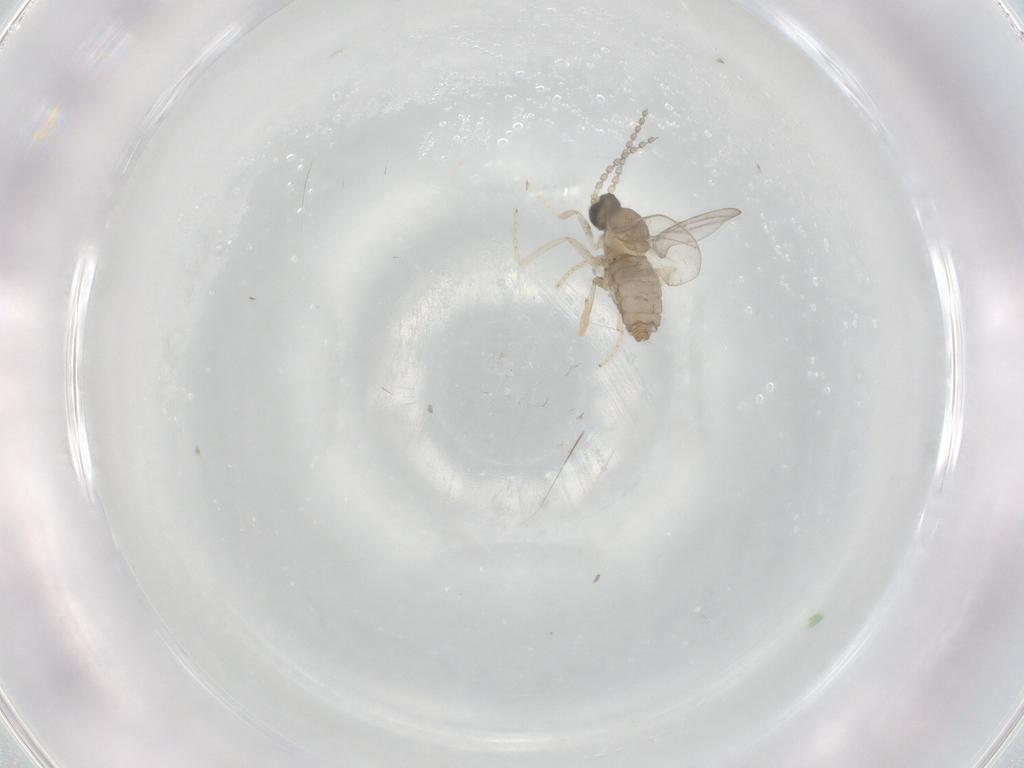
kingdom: Animalia
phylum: Arthropoda
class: Insecta
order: Diptera
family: Cecidomyiidae
